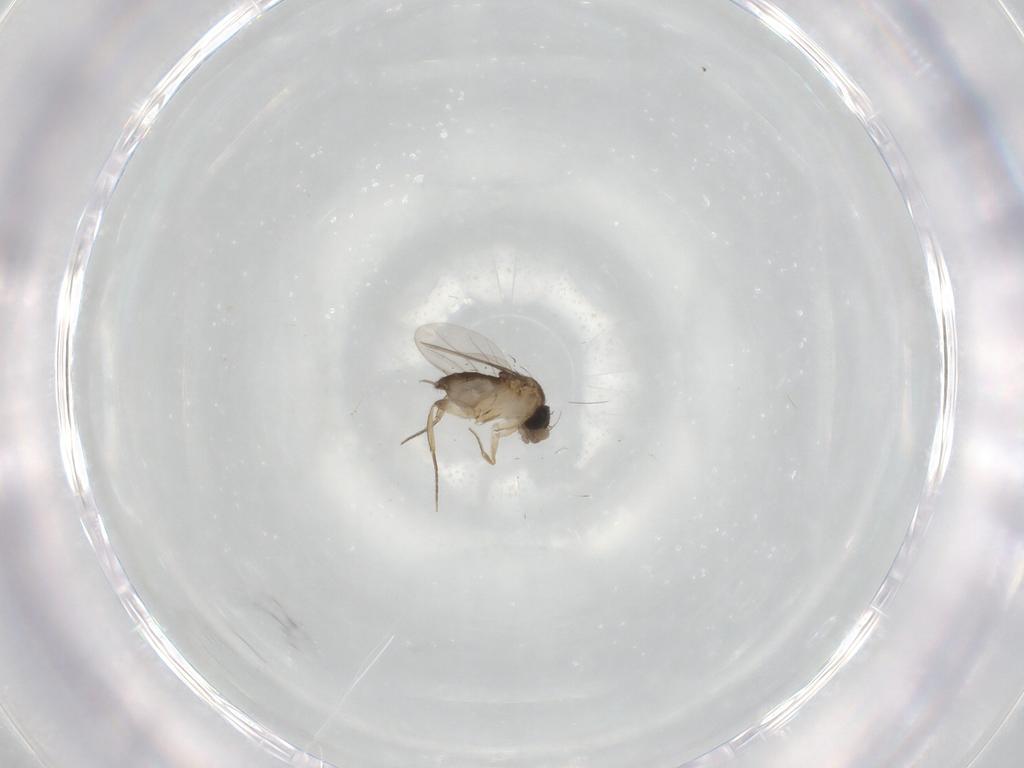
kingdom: Animalia
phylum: Arthropoda
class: Insecta
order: Diptera
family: Phoridae
